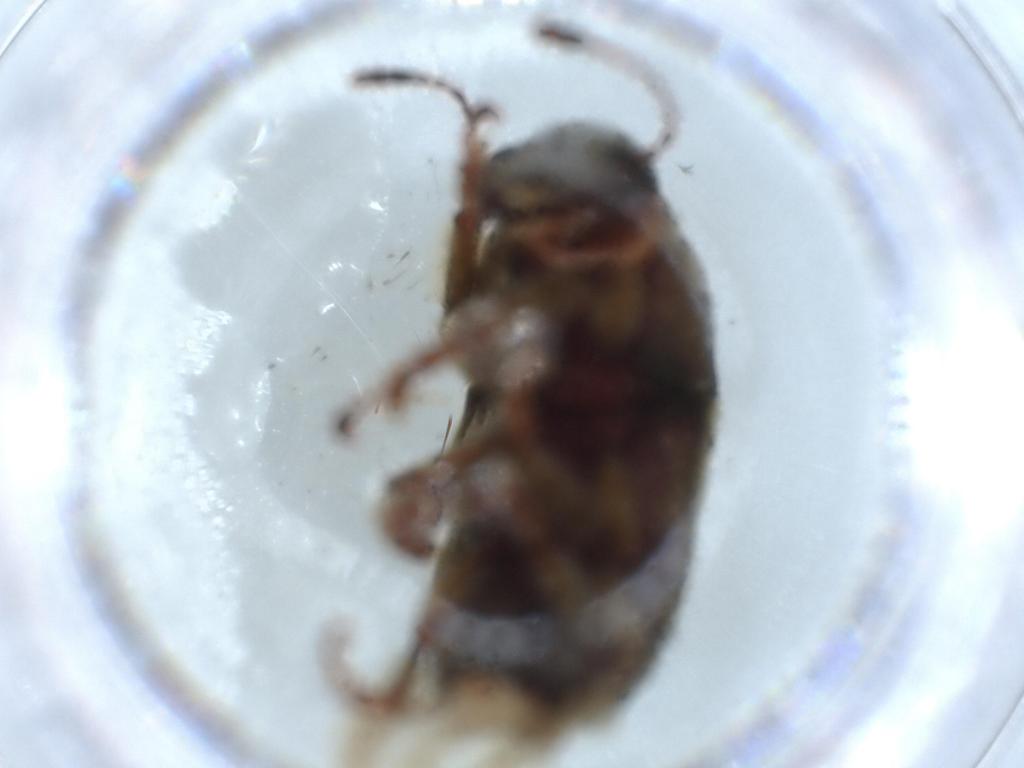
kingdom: Animalia
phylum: Arthropoda
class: Insecta
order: Coleoptera
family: Anthribidae
